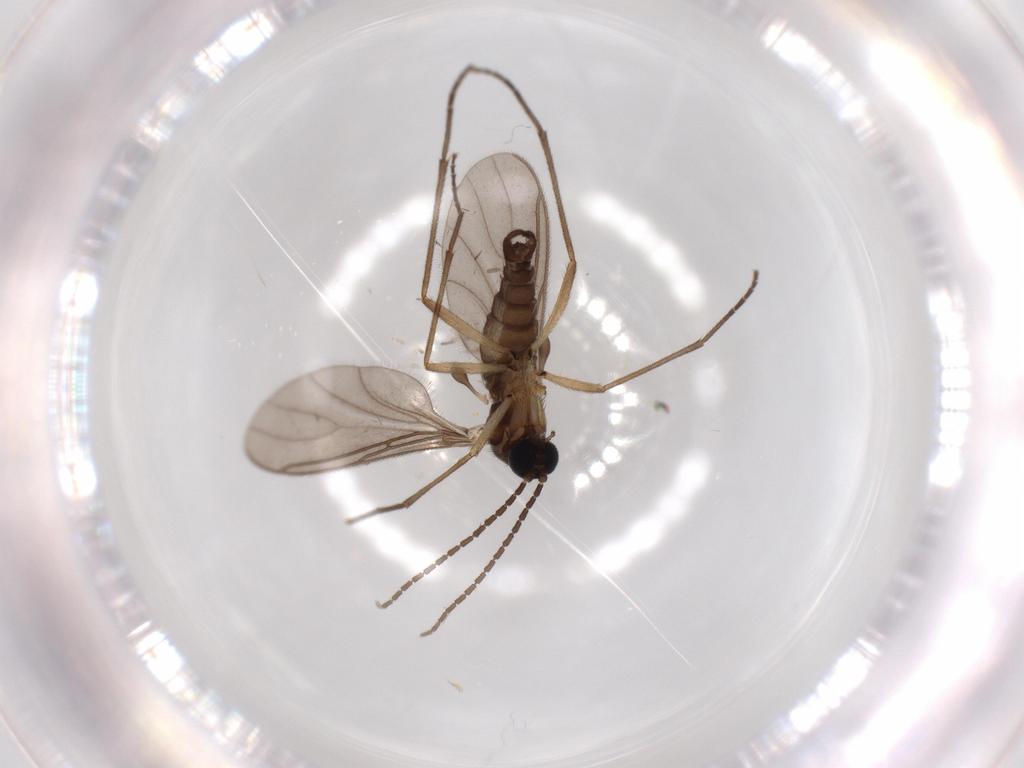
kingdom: Animalia
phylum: Arthropoda
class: Insecta
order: Diptera
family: Sciaridae
